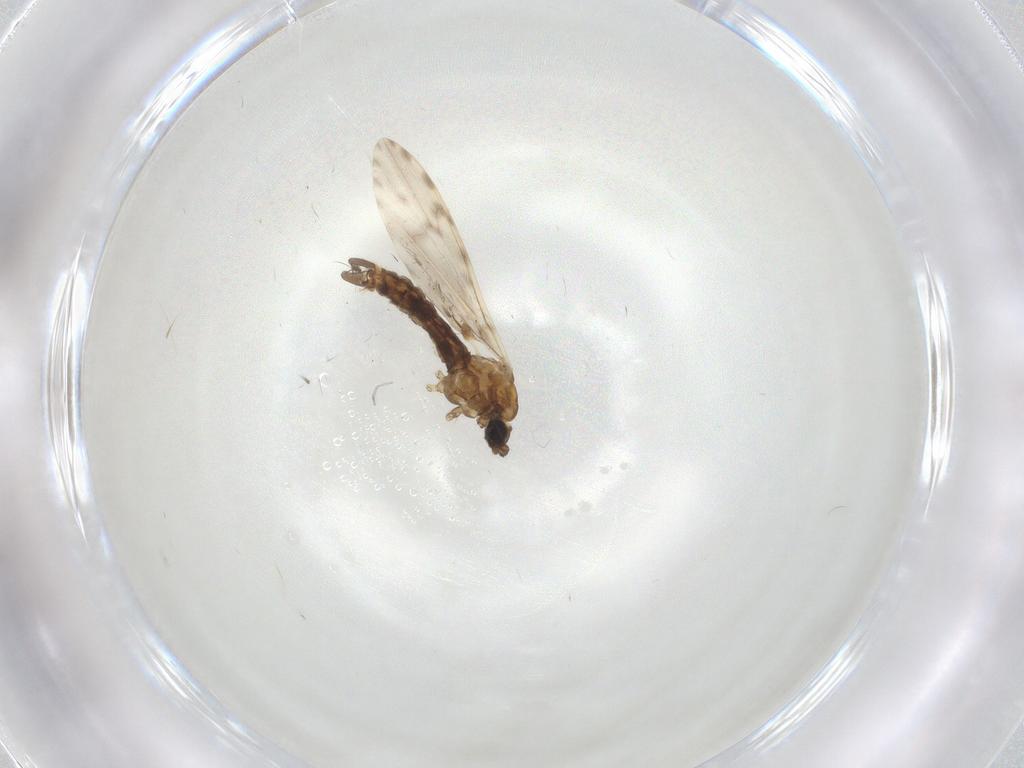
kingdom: Animalia
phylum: Arthropoda
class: Insecta
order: Diptera
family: Limoniidae
